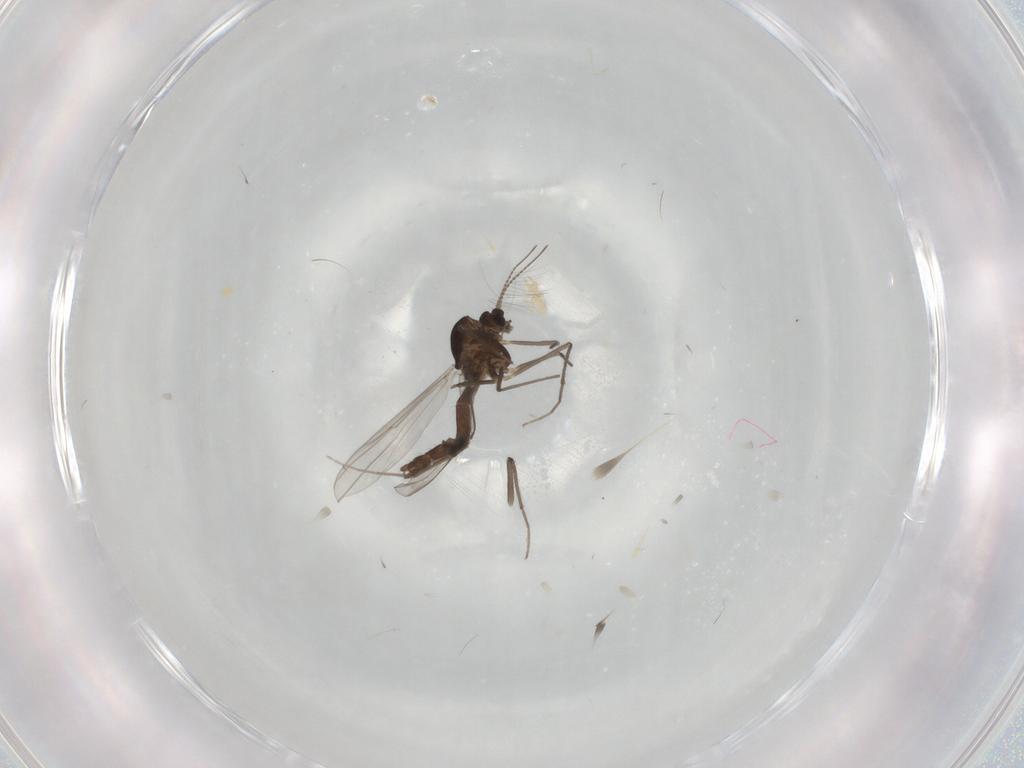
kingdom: Animalia
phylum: Arthropoda
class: Insecta
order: Diptera
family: Chironomidae
